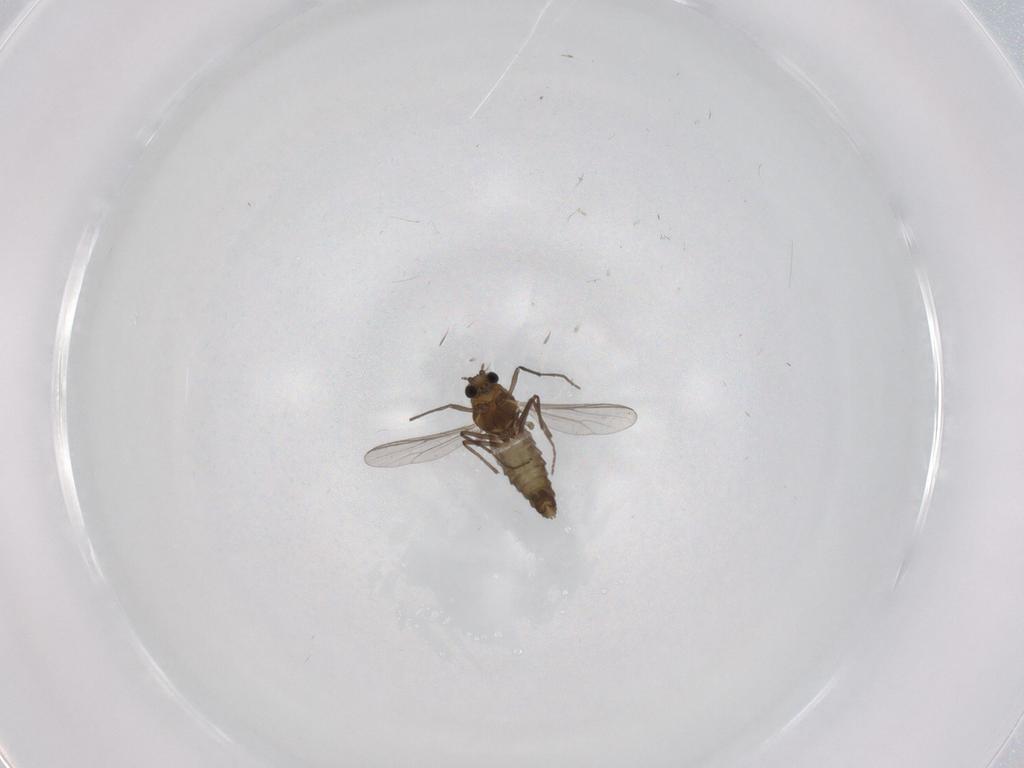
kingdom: Animalia
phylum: Arthropoda
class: Insecta
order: Diptera
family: Chironomidae
